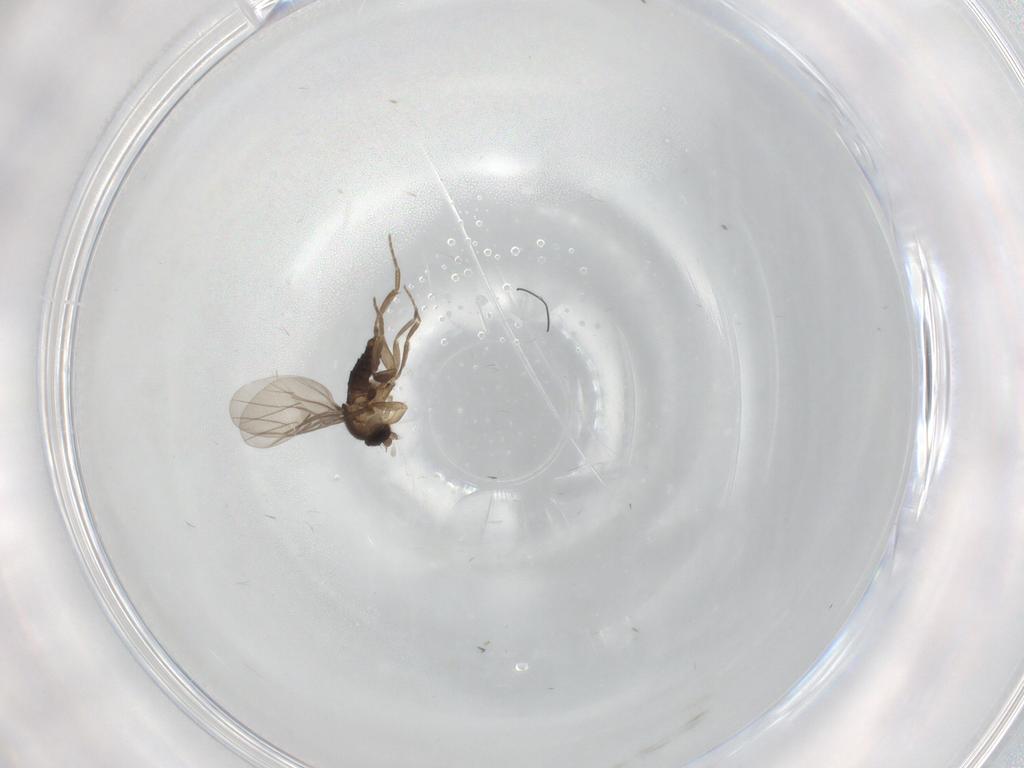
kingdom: Animalia
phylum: Arthropoda
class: Insecta
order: Diptera
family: Phoridae
